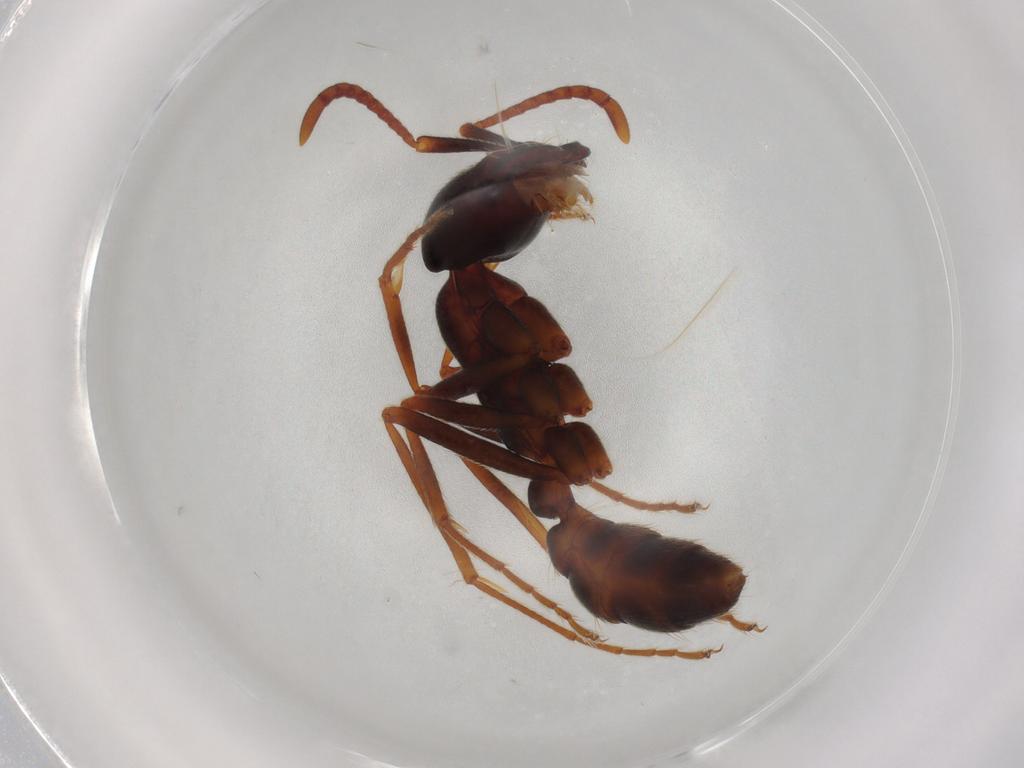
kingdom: Animalia
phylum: Arthropoda
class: Insecta
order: Hymenoptera
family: Formicidae
